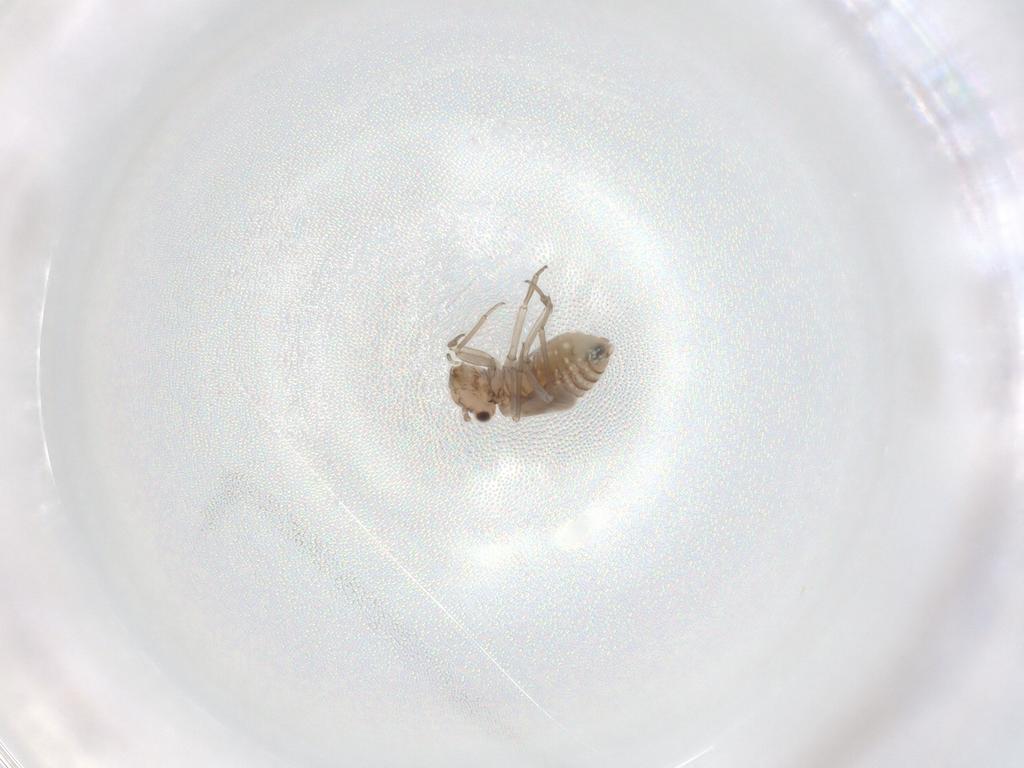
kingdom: Animalia
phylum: Arthropoda
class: Insecta
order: Psocodea
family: Lachesillidae
